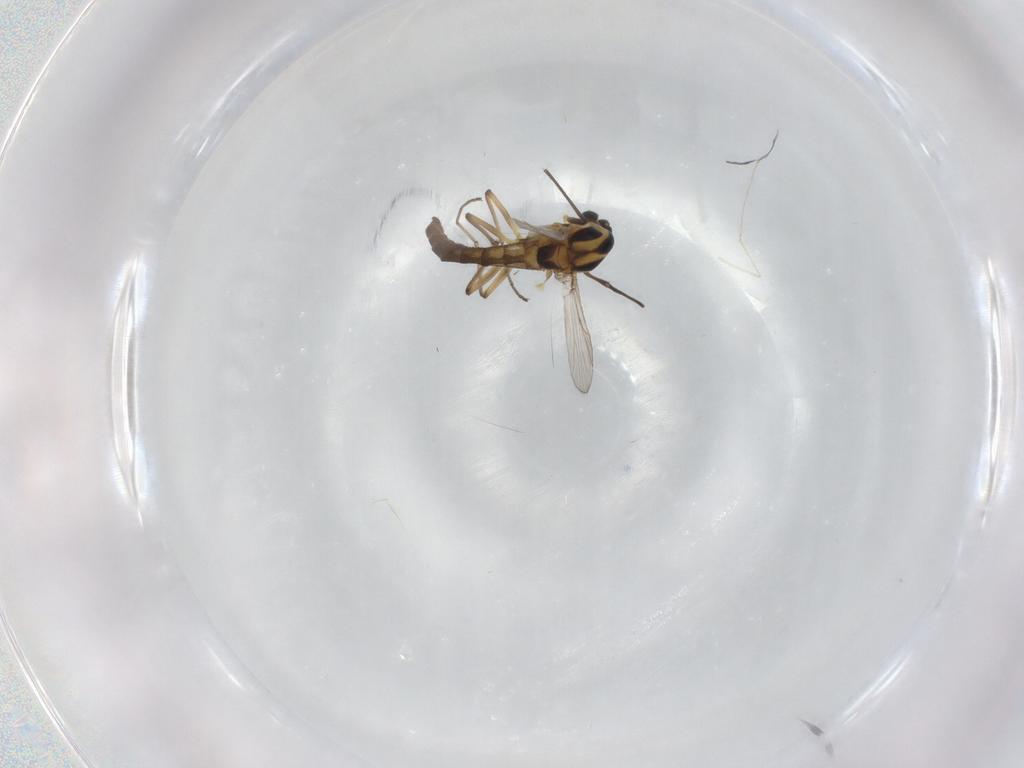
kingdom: Animalia
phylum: Arthropoda
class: Insecta
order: Diptera
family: Chironomidae
